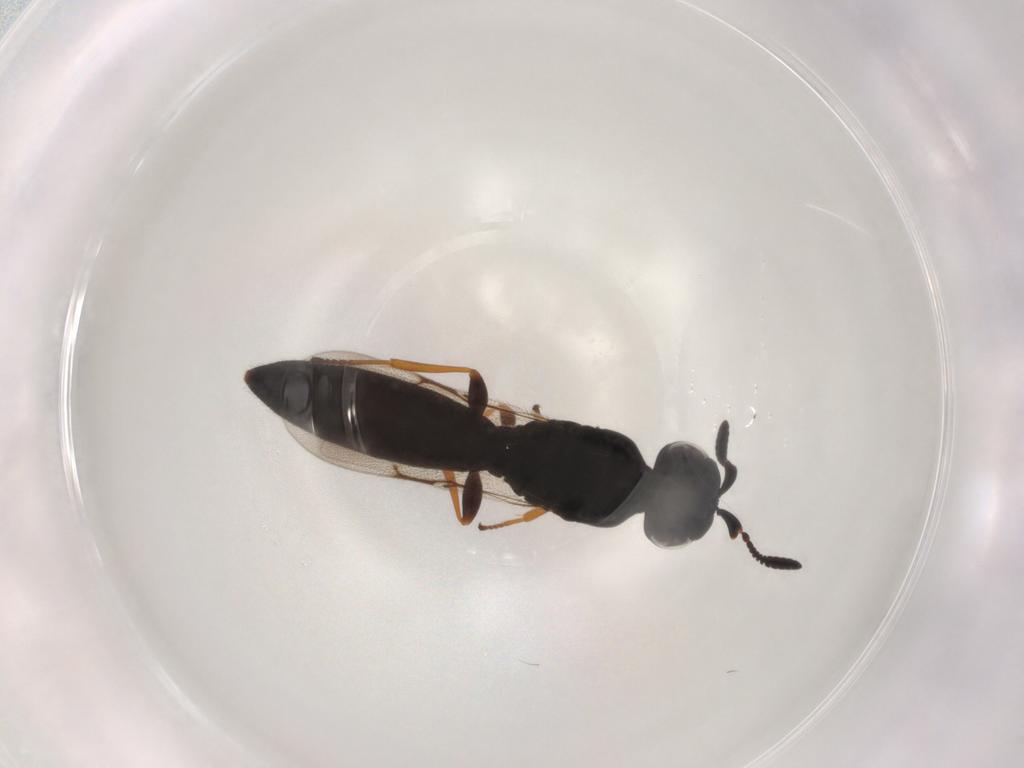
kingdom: Animalia
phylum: Arthropoda
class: Insecta
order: Hymenoptera
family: Scelionidae
